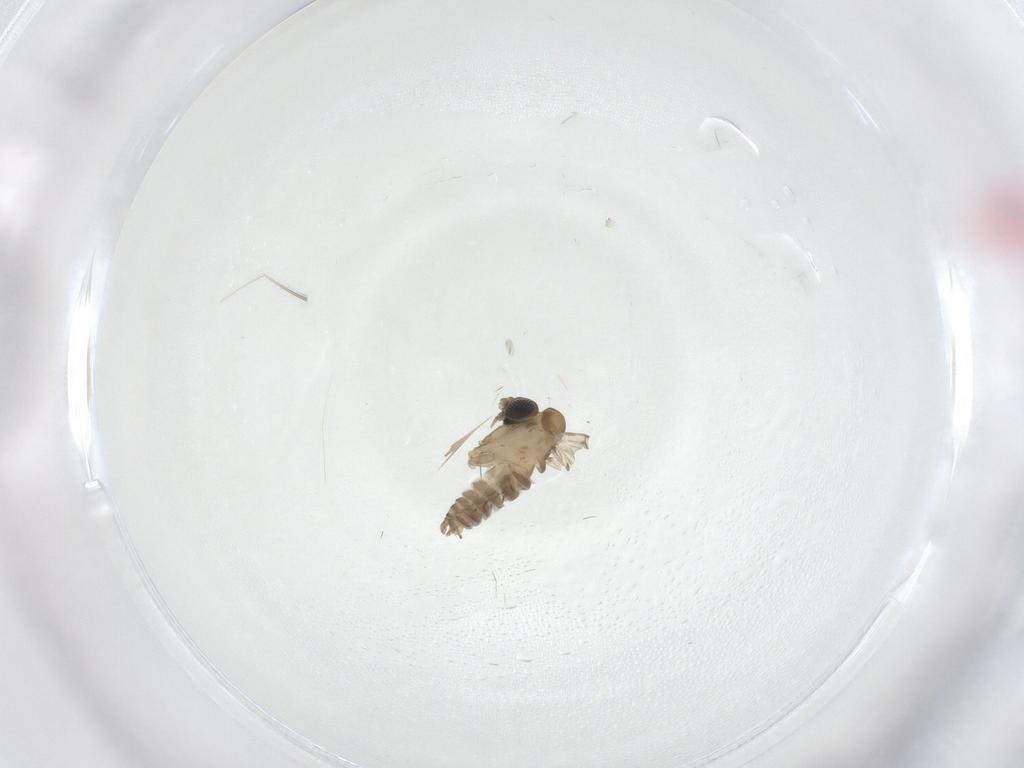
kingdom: Animalia
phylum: Arthropoda
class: Insecta
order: Diptera
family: Psychodidae
